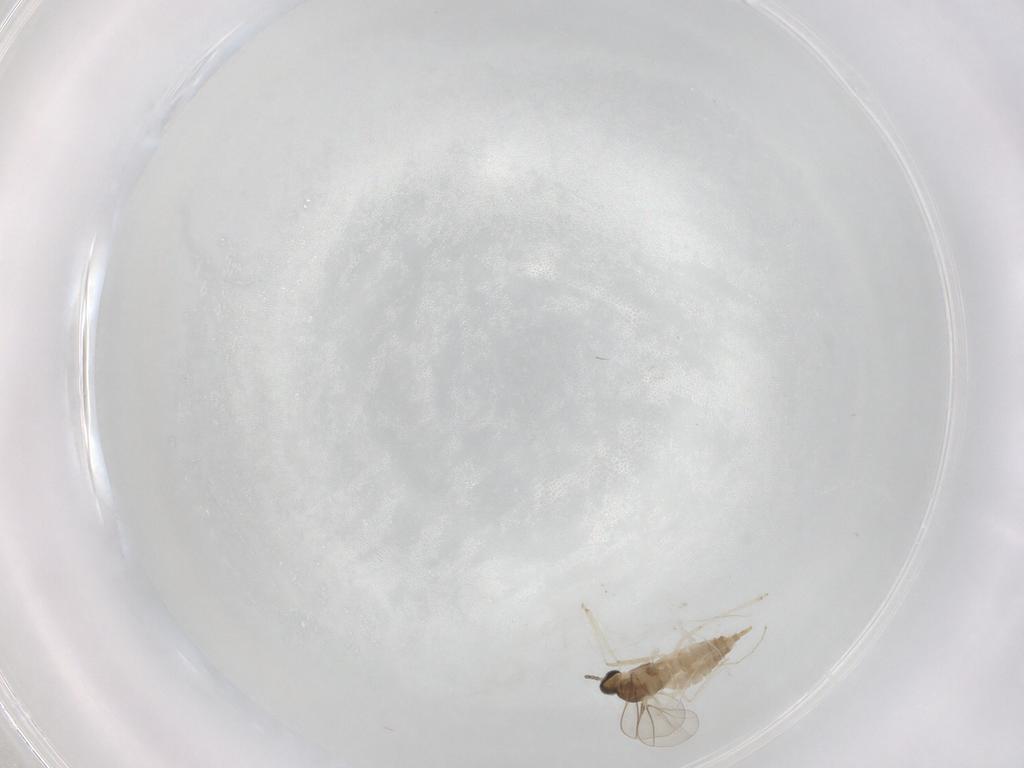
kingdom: Animalia
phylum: Arthropoda
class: Insecta
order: Diptera
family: Cecidomyiidae
